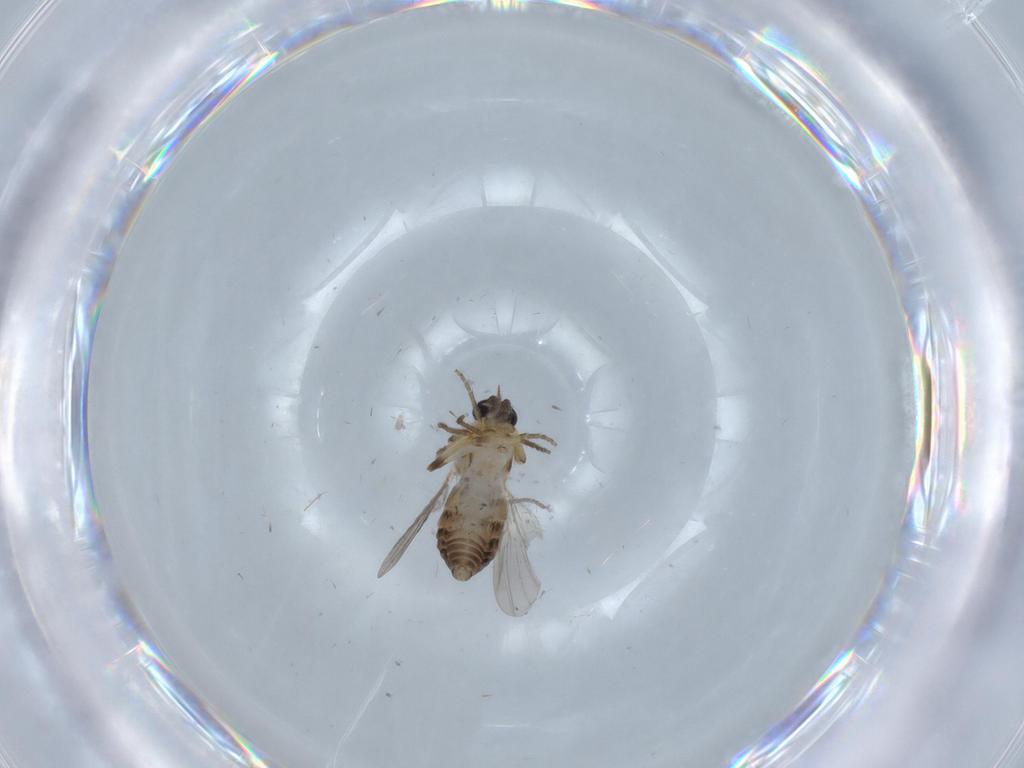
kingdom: Animalia
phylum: Arthropoda
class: Insecta
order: Diptera
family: Ceratopogonidae
